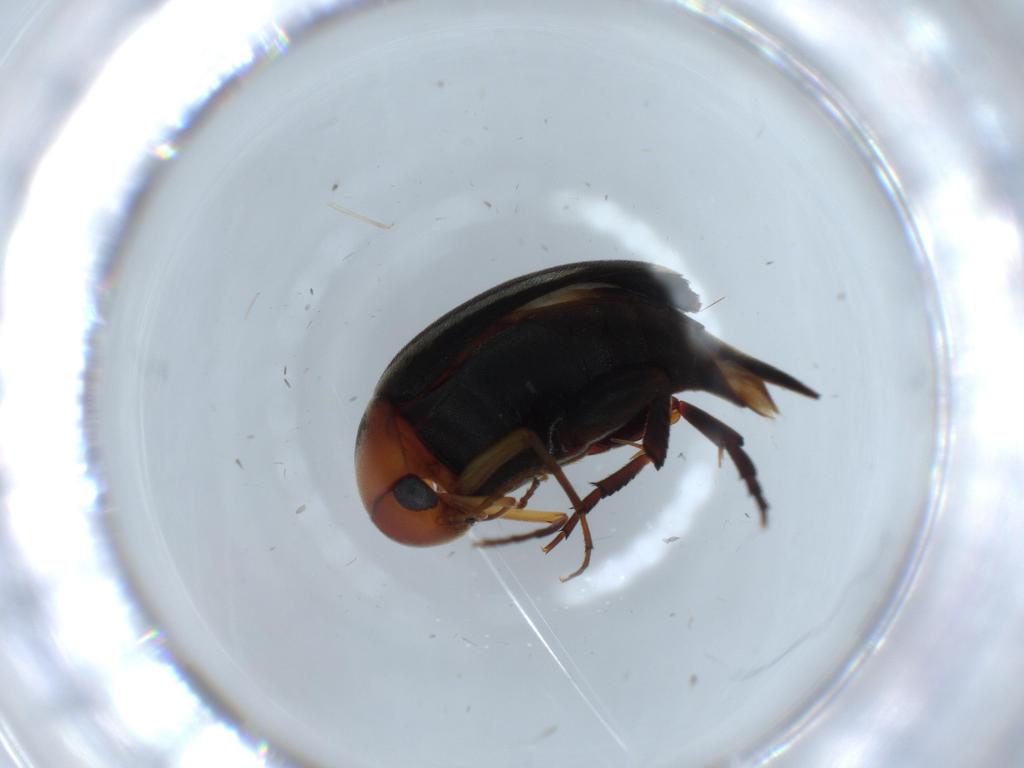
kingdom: Animalia
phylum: Arthropoda
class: Insecta
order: Coleoptera
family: Mordellidae
